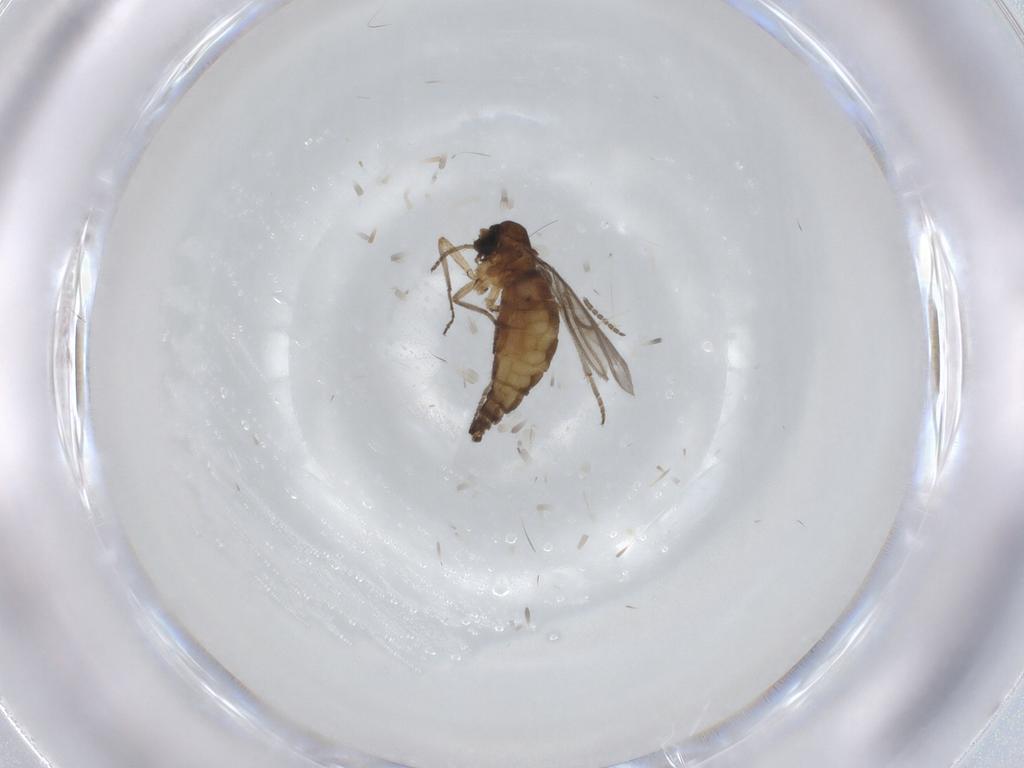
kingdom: Animalia
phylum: Arthropoda
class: Insecta
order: Diptera
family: Sciaridae
